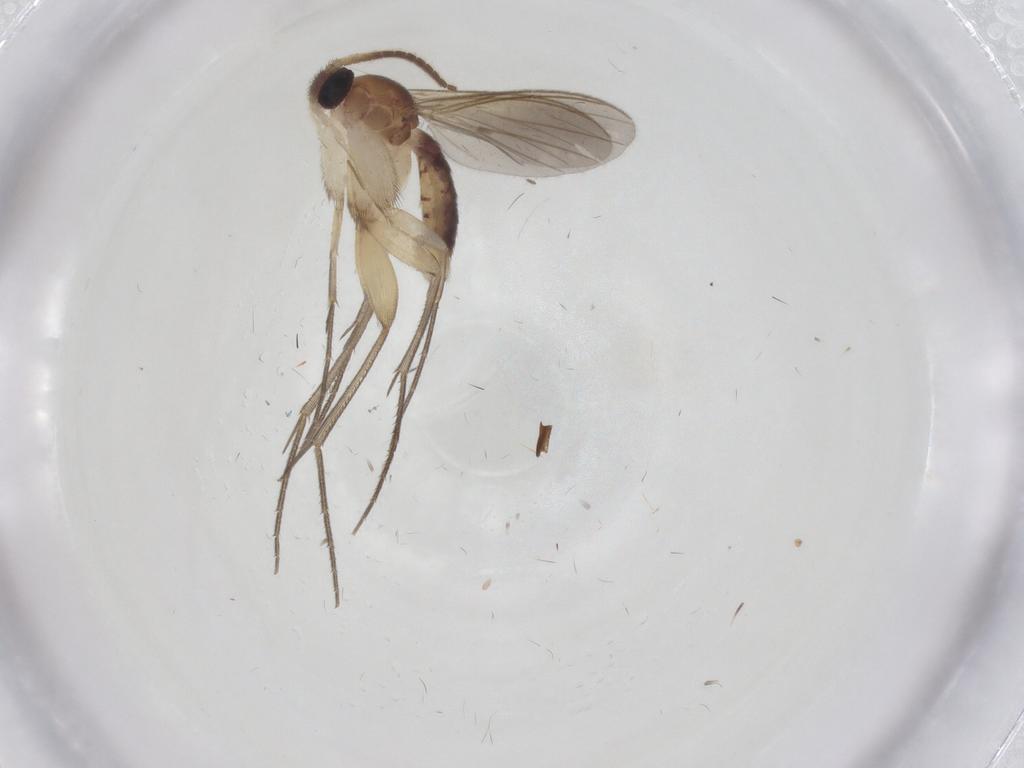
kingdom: Animalia
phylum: Arthropoda
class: Insecta
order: Diptera
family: Mycetophilidae
